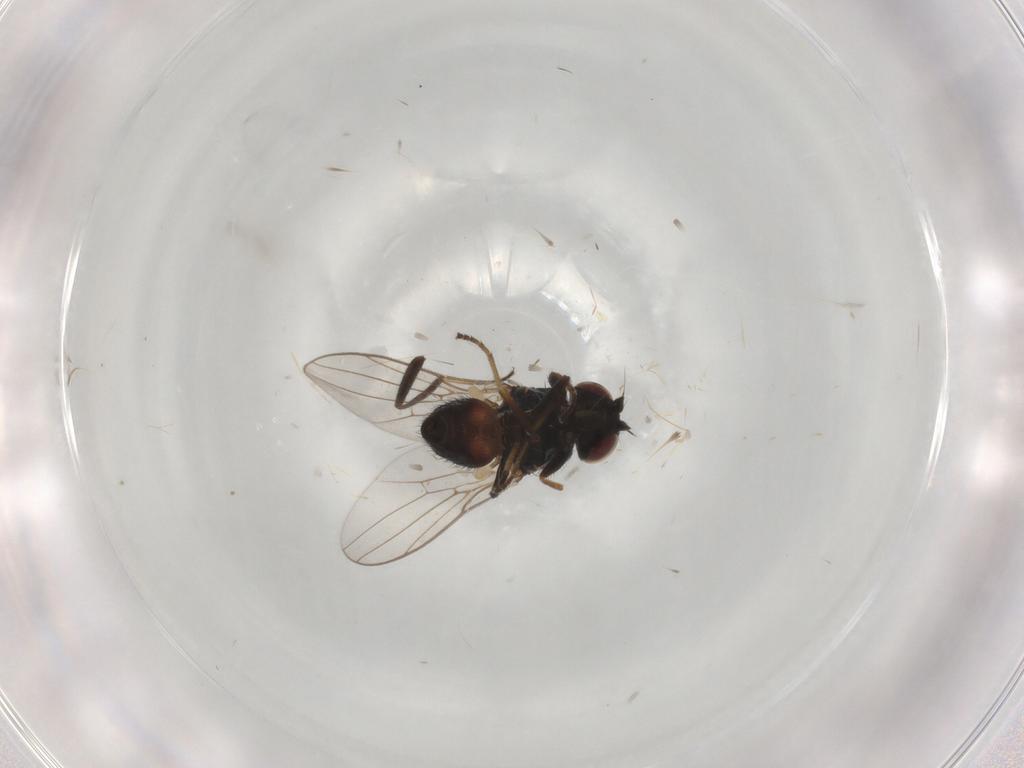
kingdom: Animalia
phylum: Arthropoda
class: Insecta
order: Diptera
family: Chloropidae
